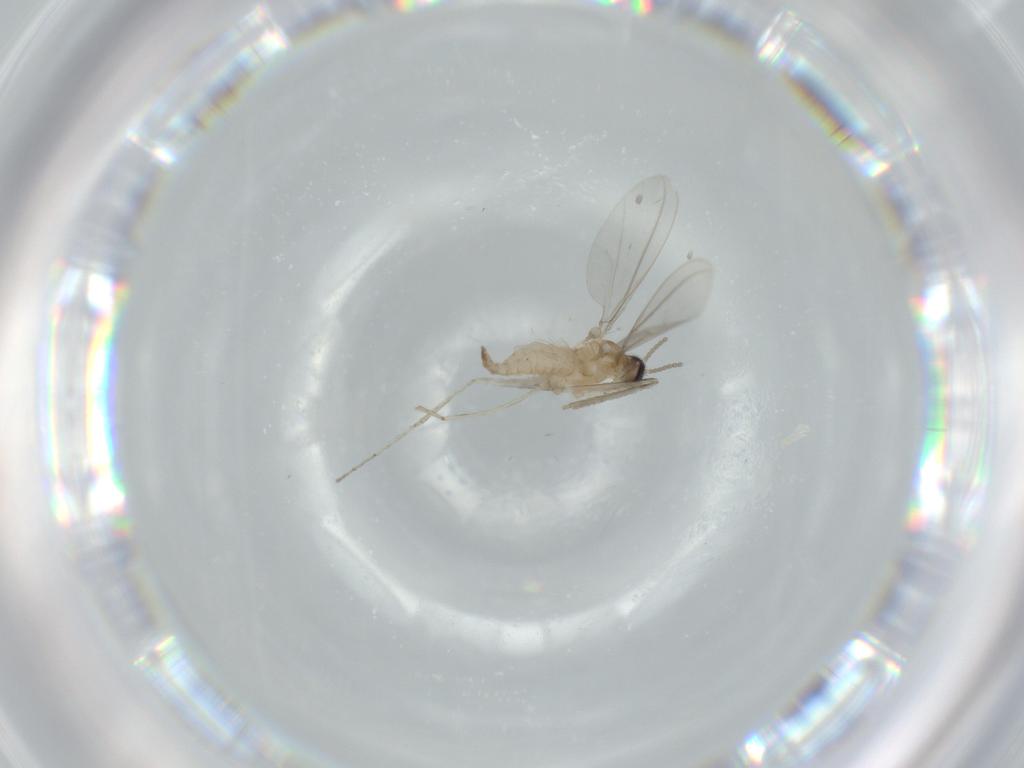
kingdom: Animalia
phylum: Arthropoda
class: Insecta
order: Diptera
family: Cecidomyiidae
